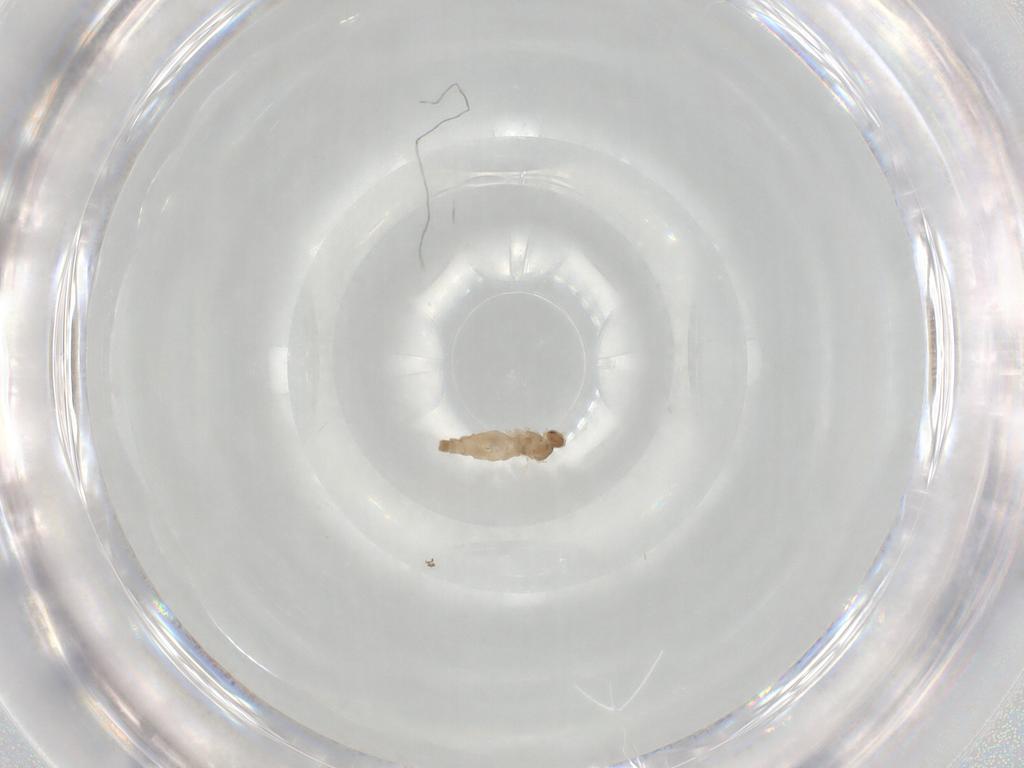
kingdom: Animalia
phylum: Arthropoda
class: Insecta
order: Diptera
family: Cecidomyiidae
